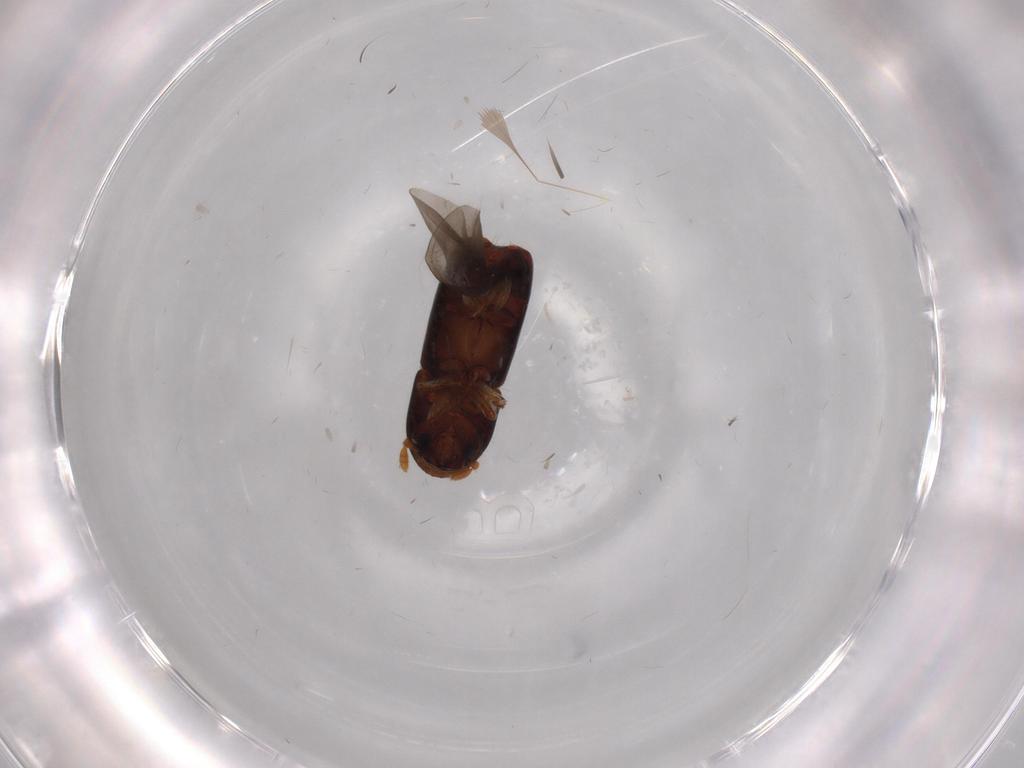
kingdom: Animalia
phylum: Arthropoda
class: Insecta
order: Coleoptera
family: Curculionidae
